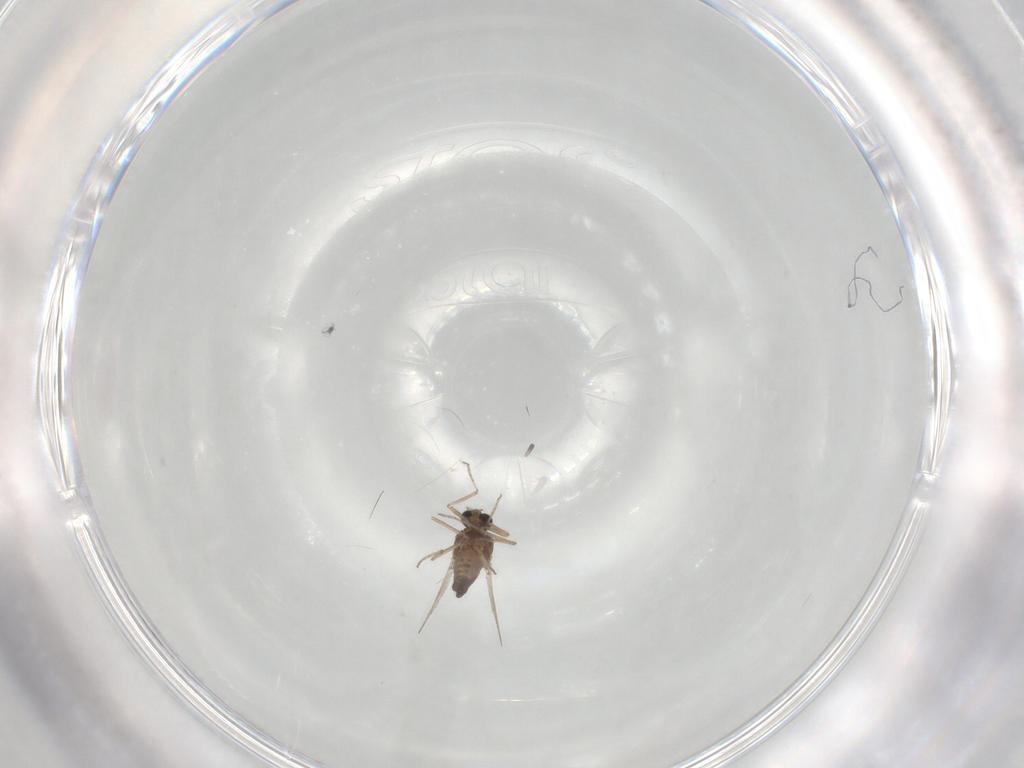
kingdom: Animalia
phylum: Arthropoda
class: Insecta
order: Diptera
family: Ceratopogonidae
